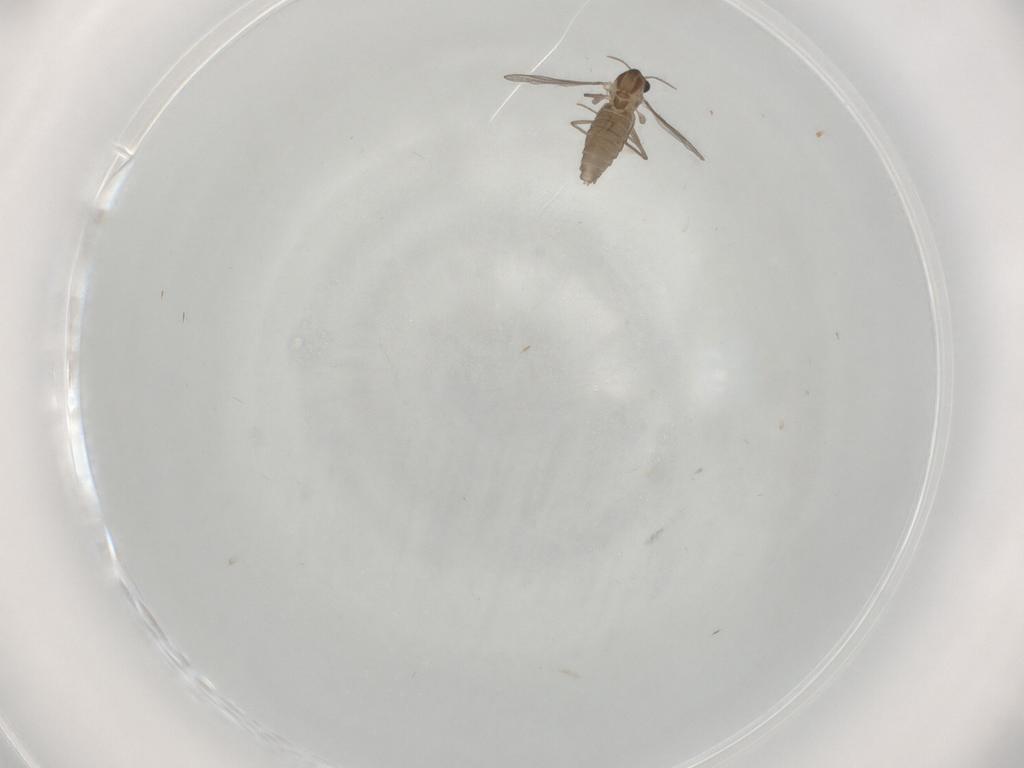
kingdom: Animalia
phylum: Arthropoda
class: Insecta
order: Diptera
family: Chironomidae
